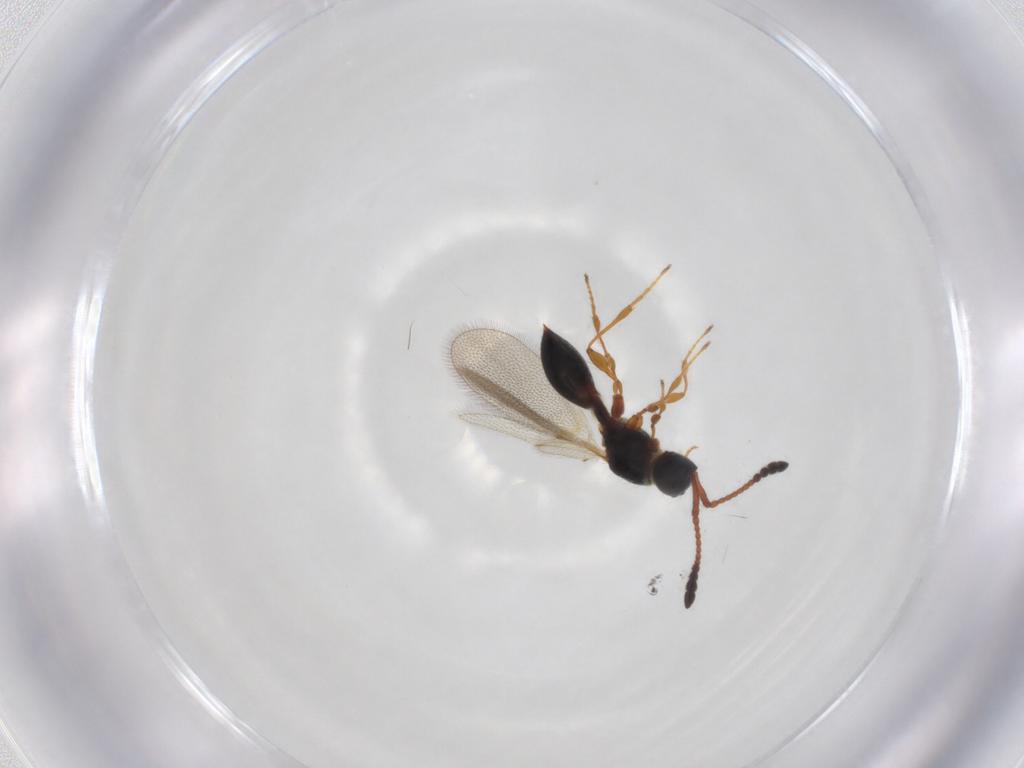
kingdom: Animalia
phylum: Arthropoda
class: Insecta
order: Hymenoptera
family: Diapriidae
